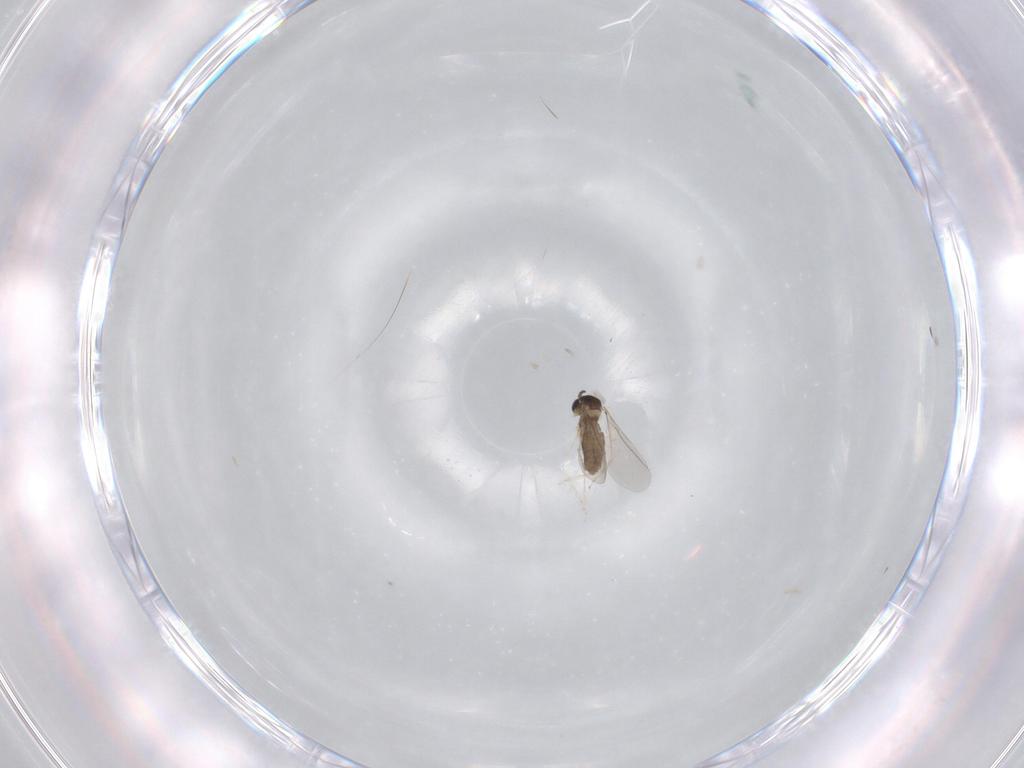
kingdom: Animalia
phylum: Arthropoda
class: Insecta
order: Diptera
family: Cecidomyiidae
